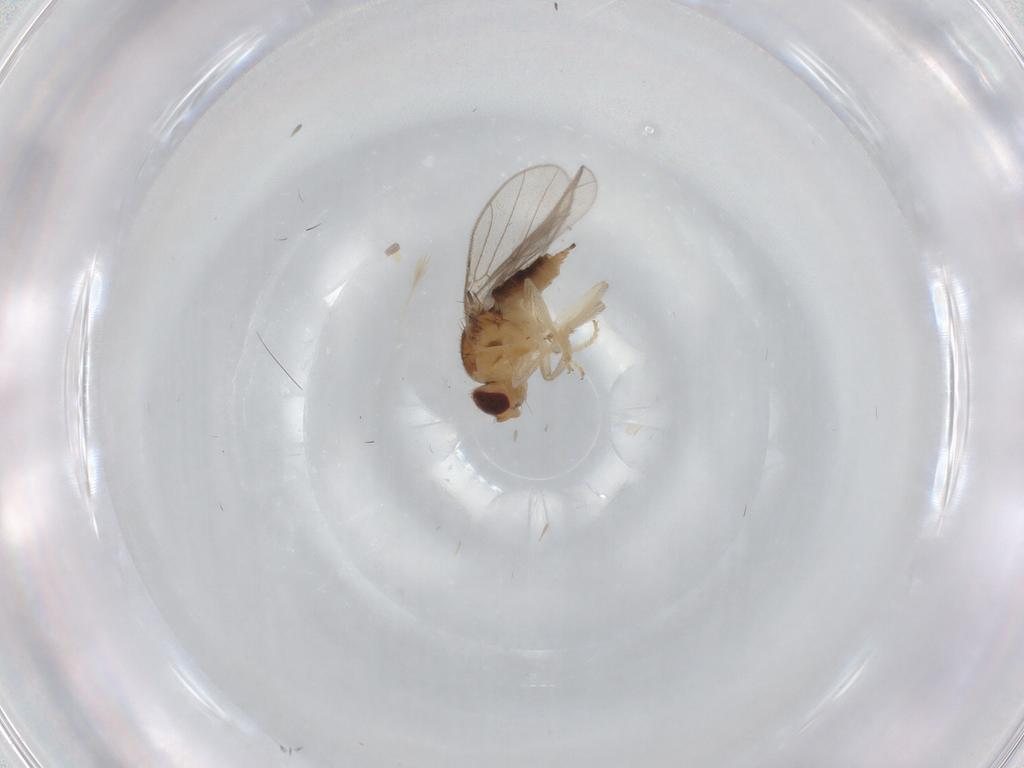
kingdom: Animalia
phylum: Arthropoda
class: Insecta
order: Diptera
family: Chloropidae
